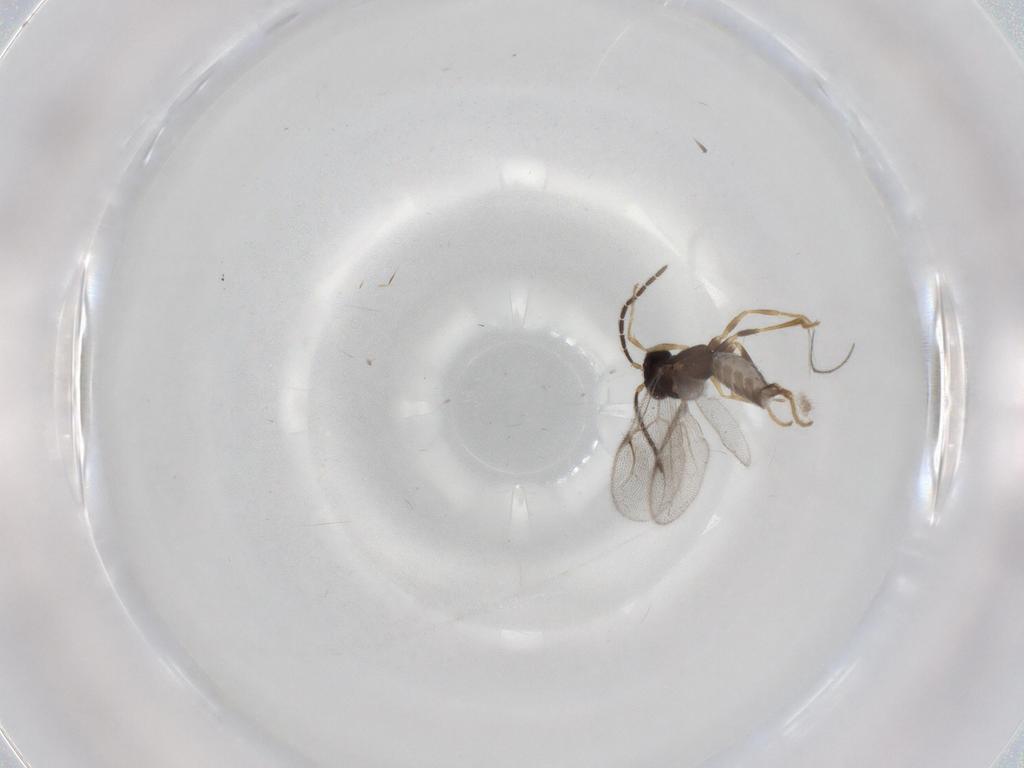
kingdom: Animalia
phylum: Arthropoda
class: Insecta
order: Hymenoptera
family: Dryinidae
